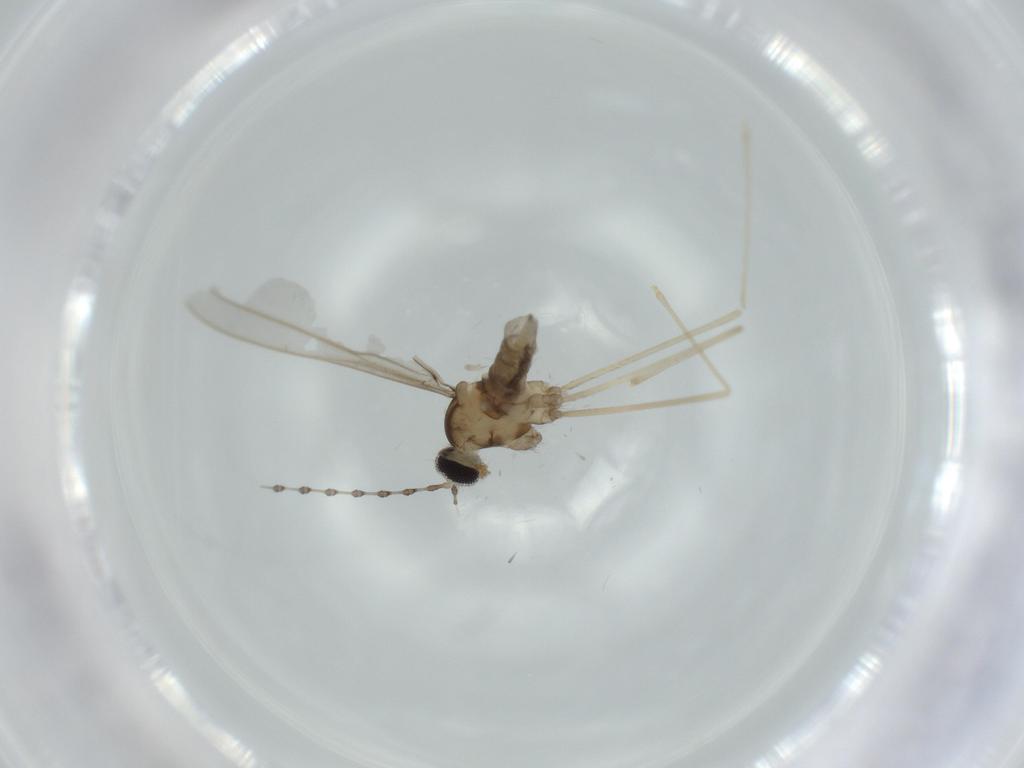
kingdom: Animalia
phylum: Arthropoda
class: Insecta
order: Diptera
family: Cecidomyiidae
